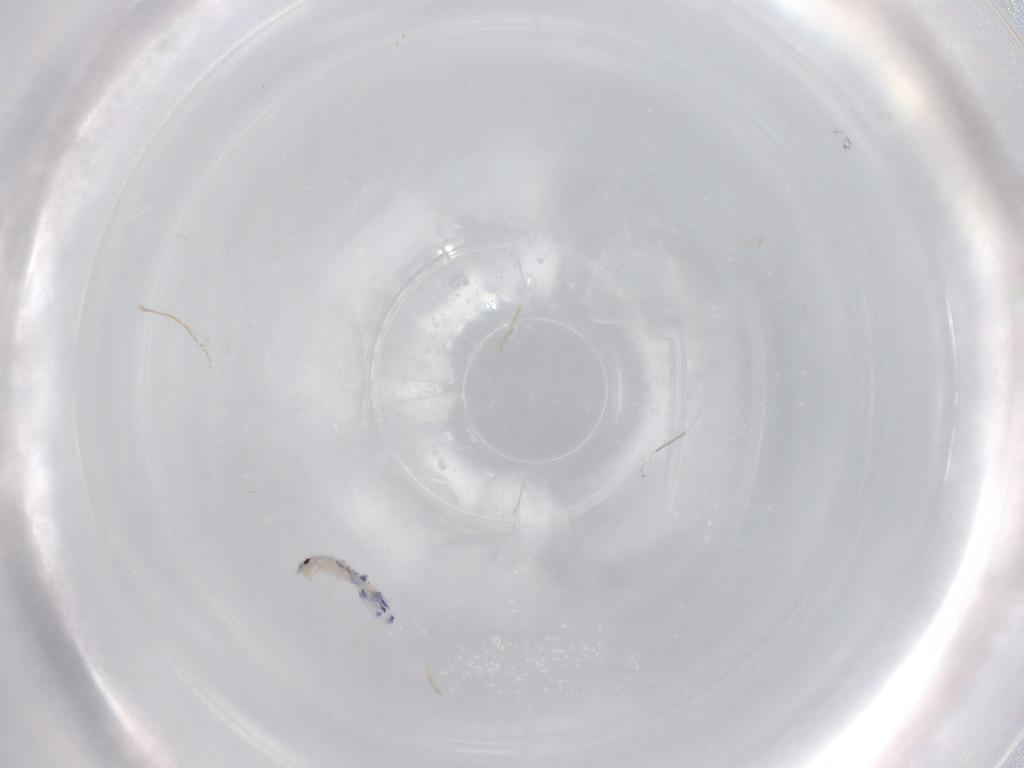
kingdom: Animalia
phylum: Arthropoda
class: Collembola
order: Entomobryomorpha
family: Entomobryidae
